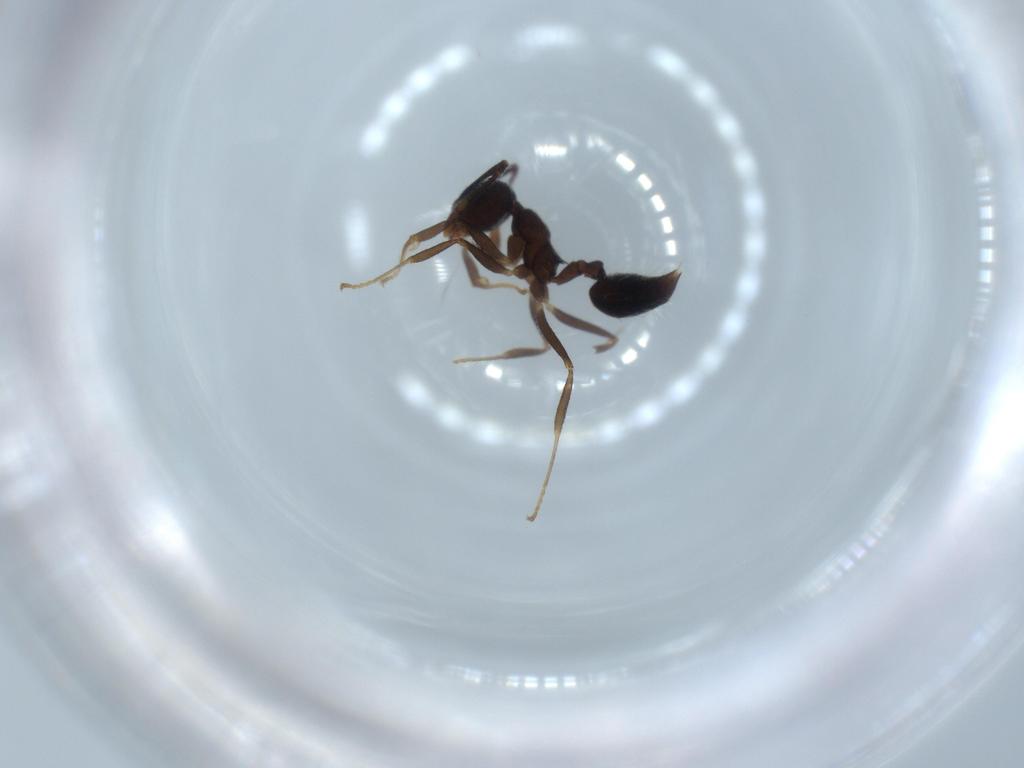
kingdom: Animalia
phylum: Arthropoda
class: Insecta
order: Hymenoptera
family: Formicidae
